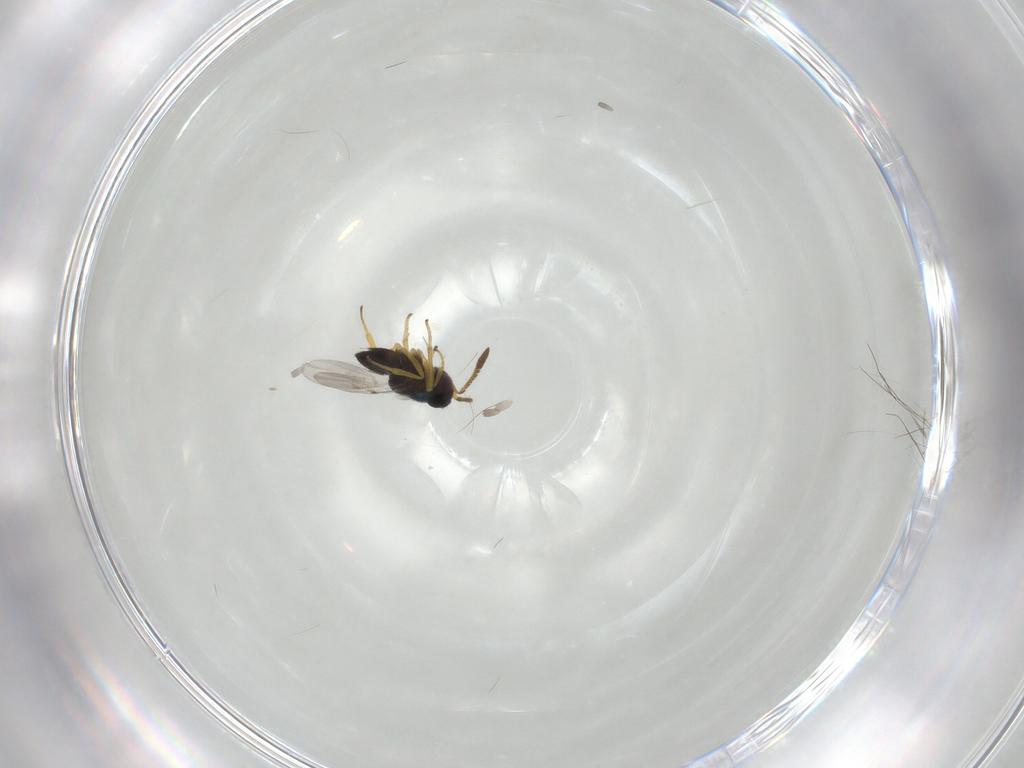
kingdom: Animalia
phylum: Arthropoda
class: Insecta
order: Hymenoptera
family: Encyrtidae
